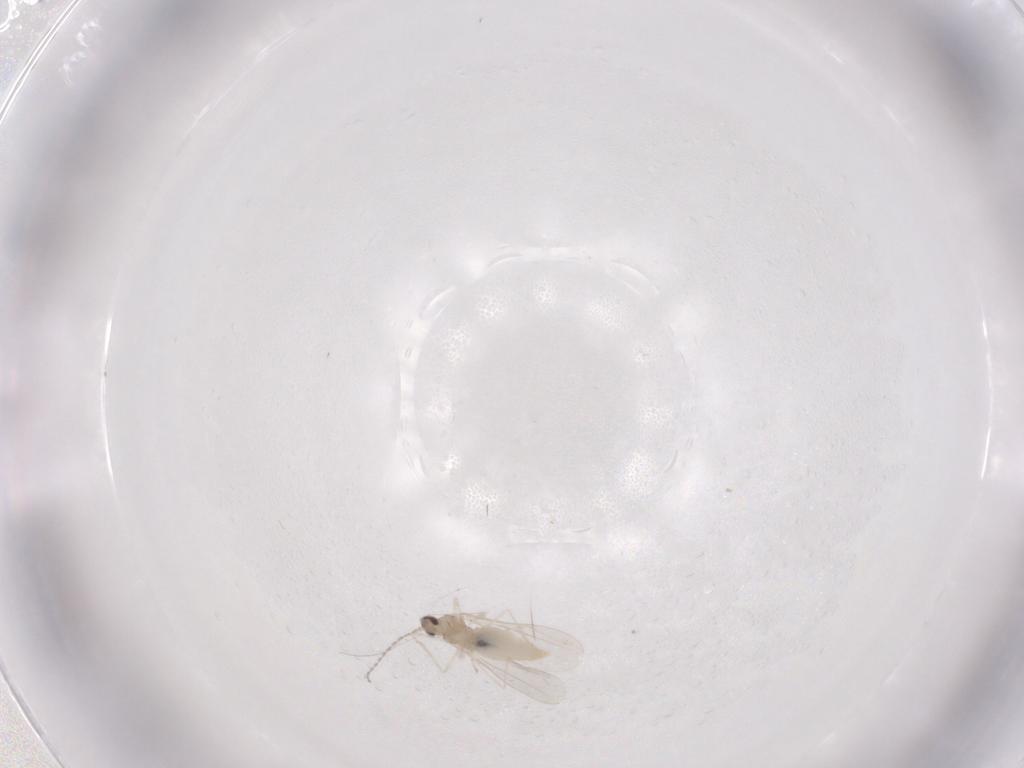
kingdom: Animalia
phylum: Arthropoda
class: Insecta
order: Diptera
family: Cecidomyiidae
